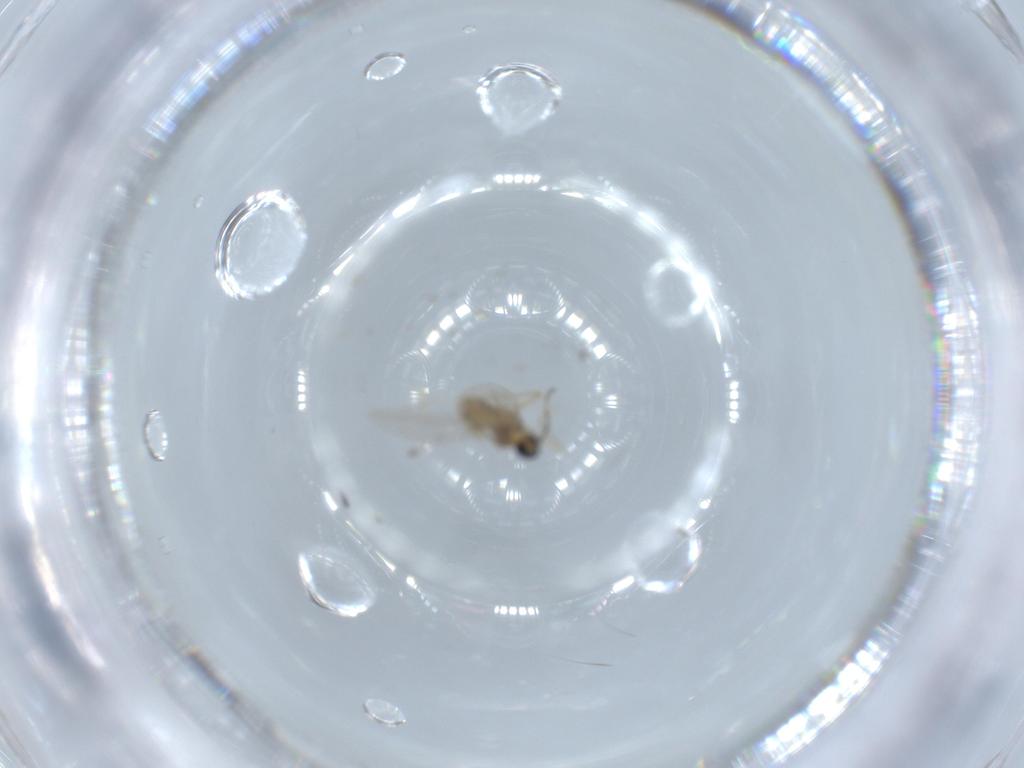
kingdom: Animalia
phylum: Arthropoda
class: Insecta
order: Diptera
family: Cecidomyiidae
